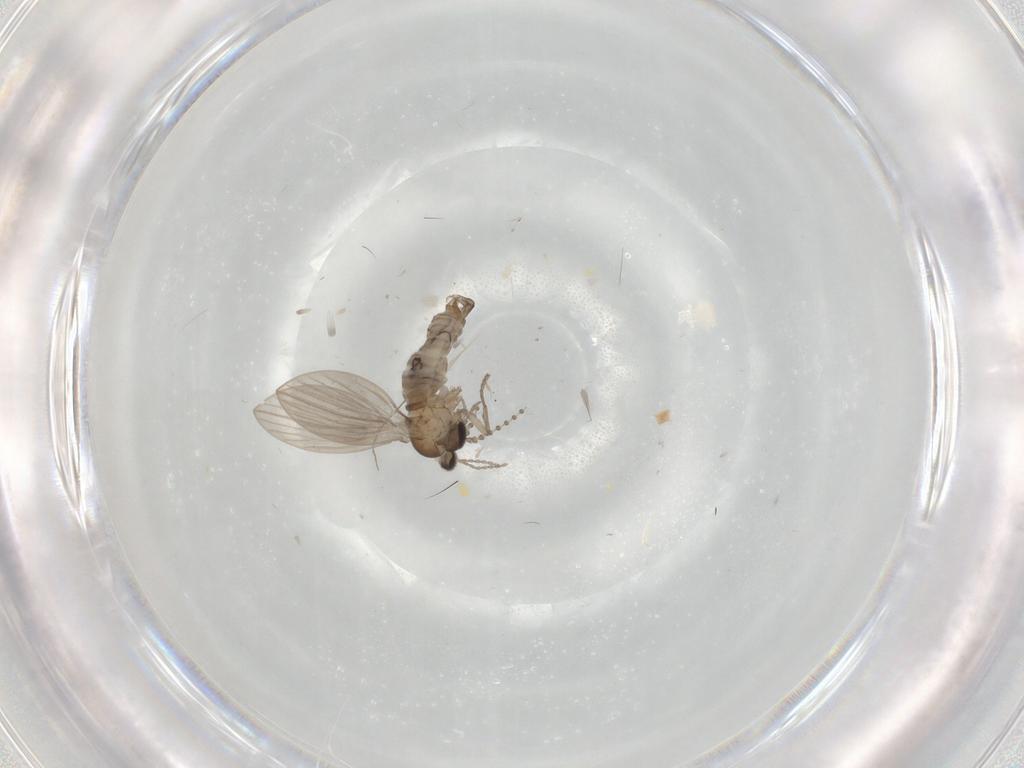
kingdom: Animalia
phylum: Arthropoda
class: Insecta
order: Diptera
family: Dolichopodidae
